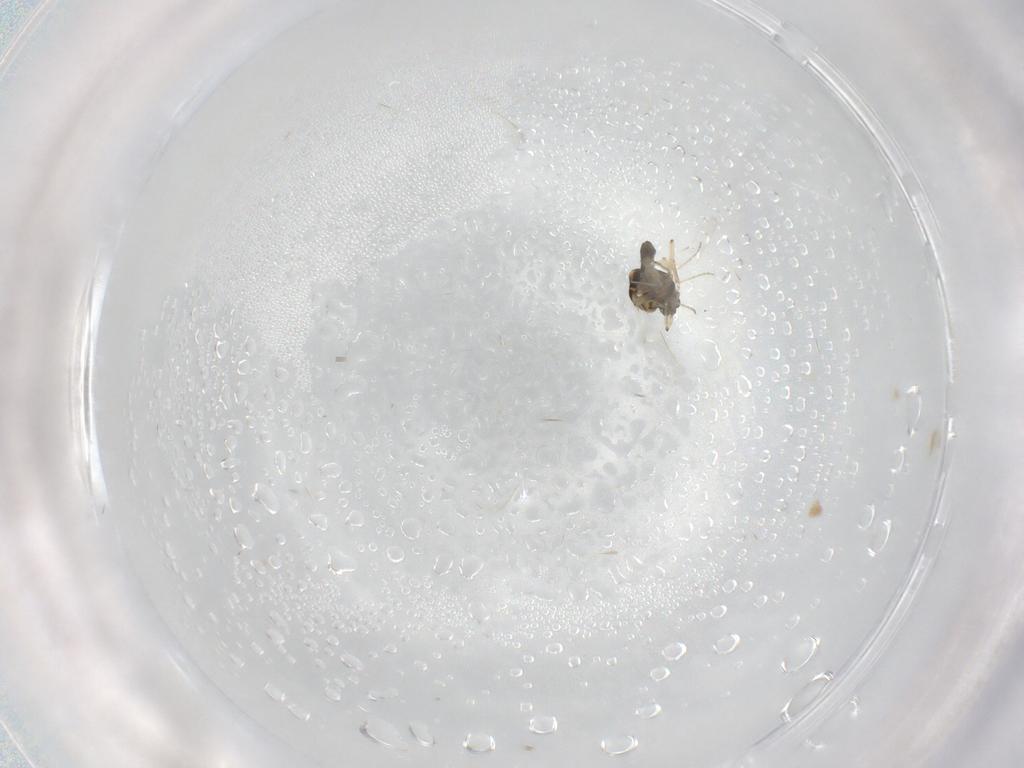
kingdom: Animalia
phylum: Arthropoda
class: Insecta
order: Diptera
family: Ceratopogonidae
